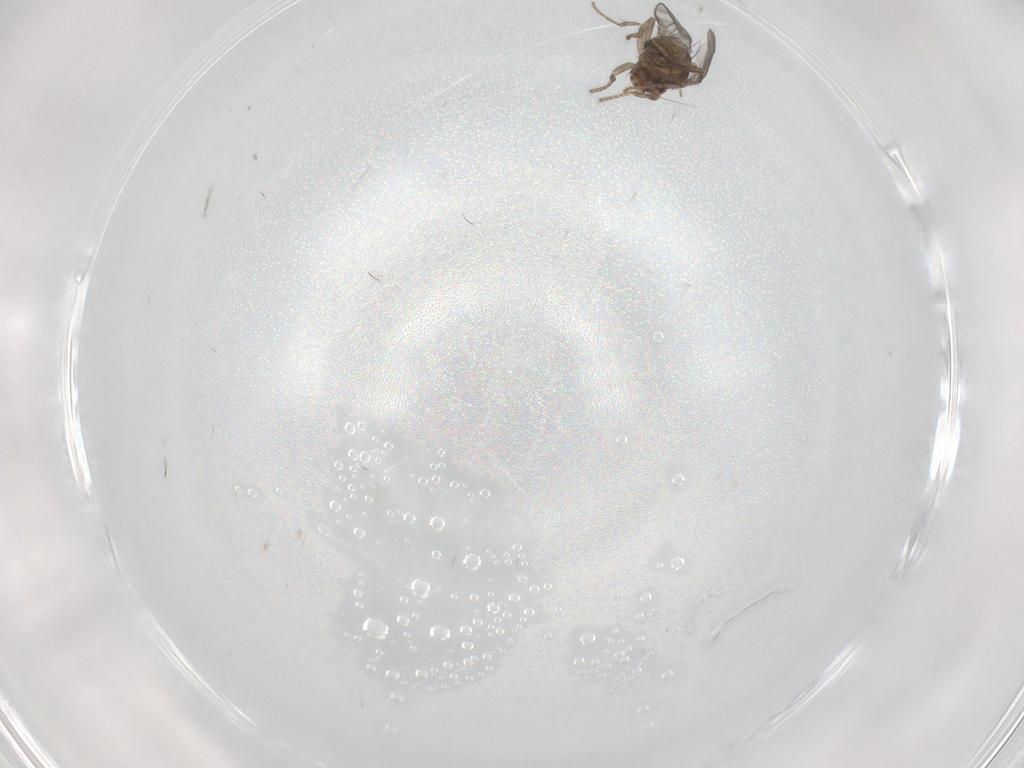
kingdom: Animalia
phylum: Arthropoda
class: Insecta
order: Diptera
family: Sphaeroceridae
